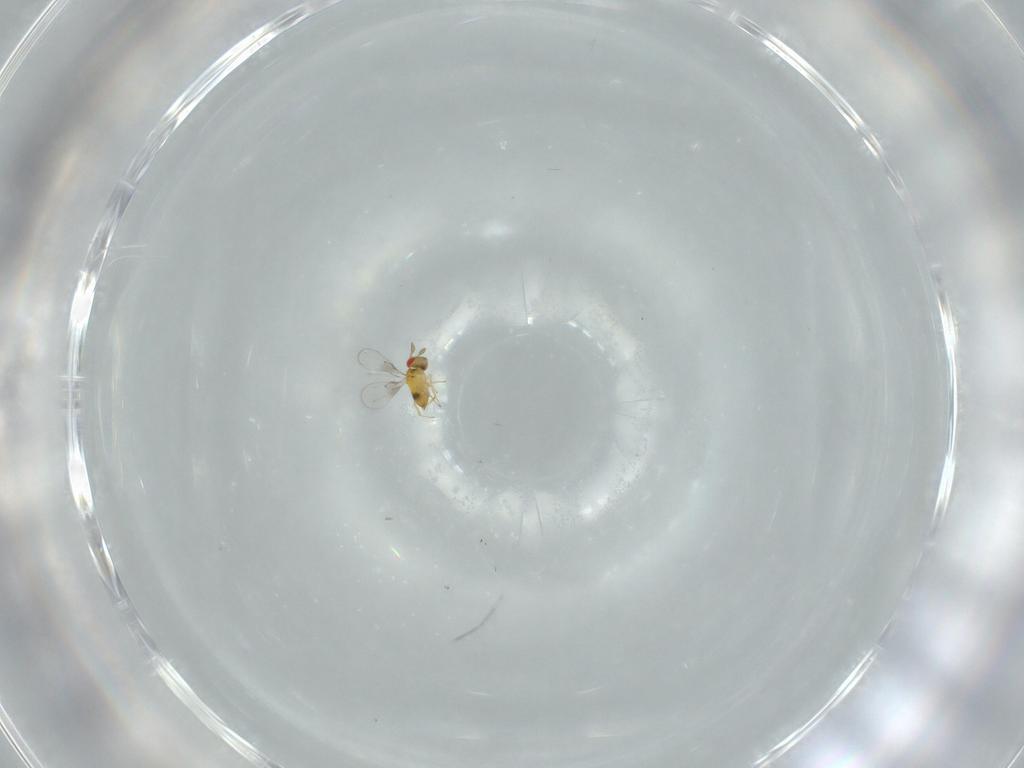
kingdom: Animalia
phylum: Arthropoda
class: Insecta
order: Hymenoptera
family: Trichogrammatidae
